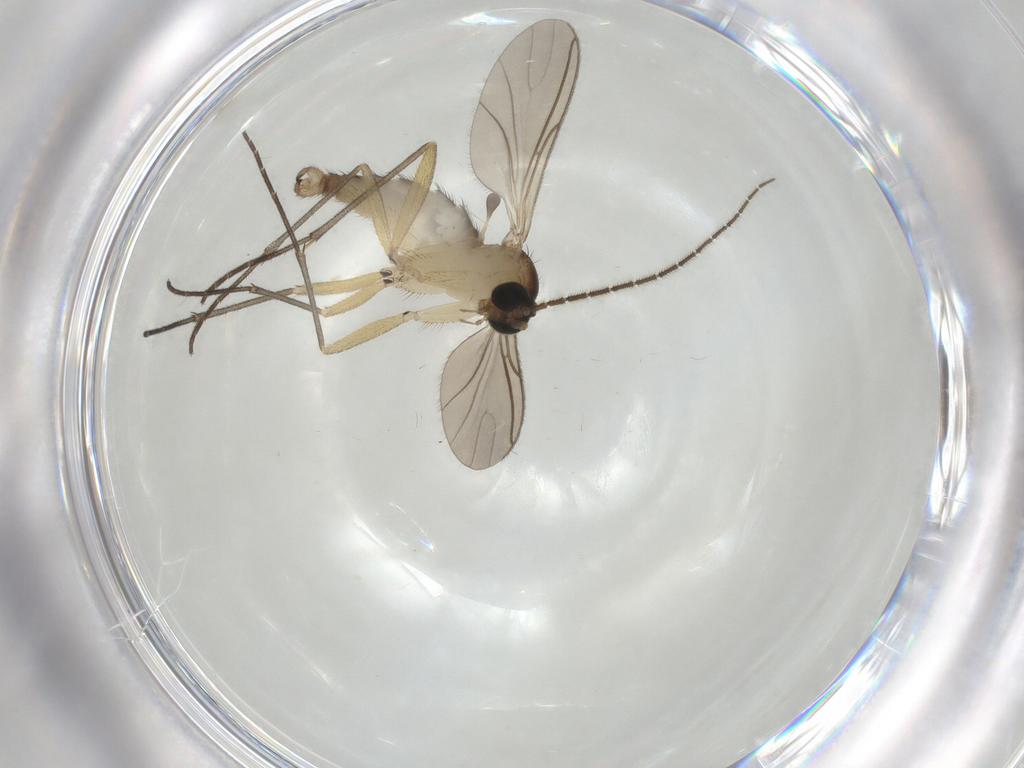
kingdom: Animalia
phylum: Arthropoda
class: Insecta
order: Diptera
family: Sciaridae
